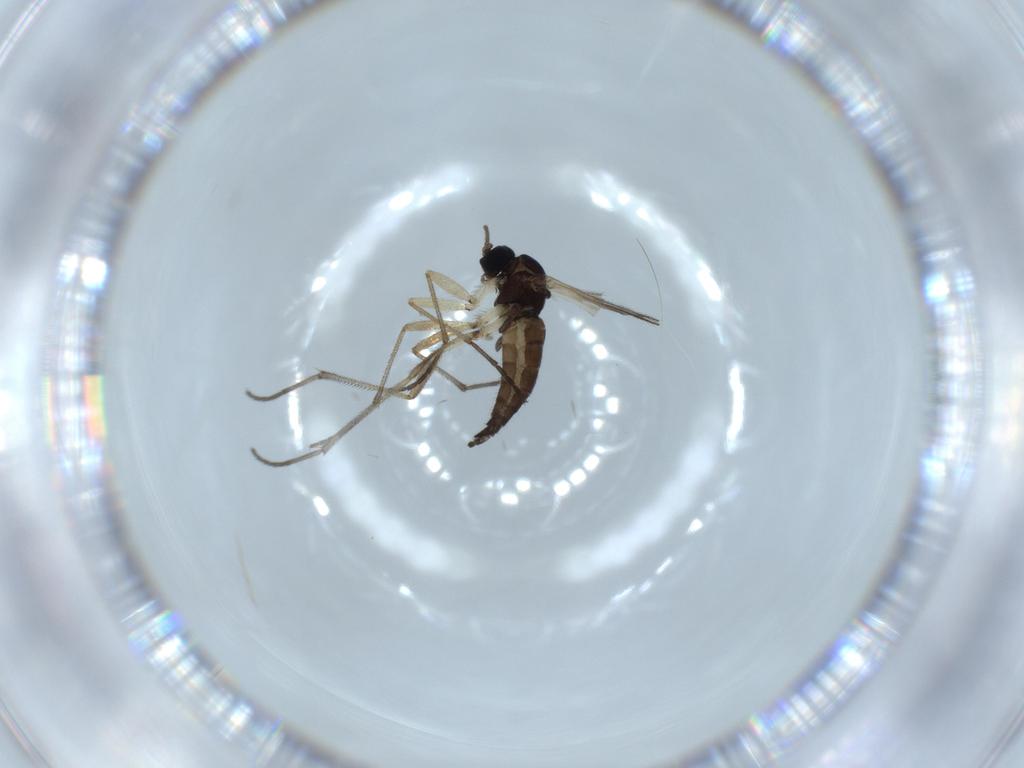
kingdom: Animalia
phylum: Arthropoda
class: Insecta
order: Diptera
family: Sciaridae
